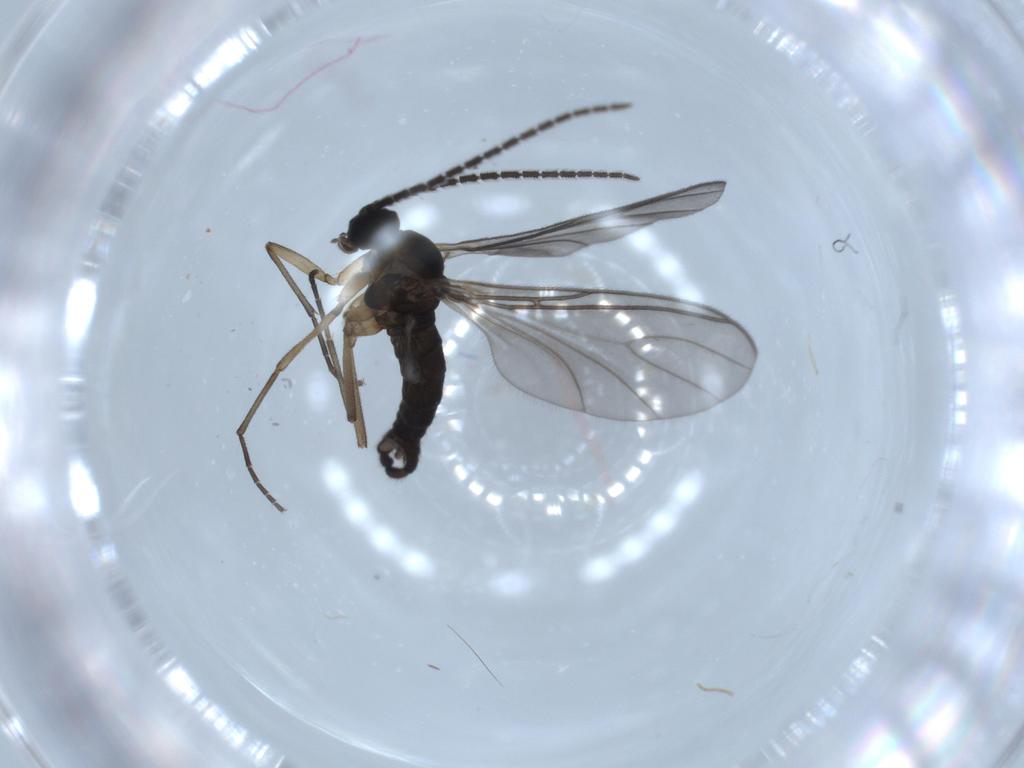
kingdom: Animalia
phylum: Arthropoda
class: Insecta
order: Diptera
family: Sciaridae
